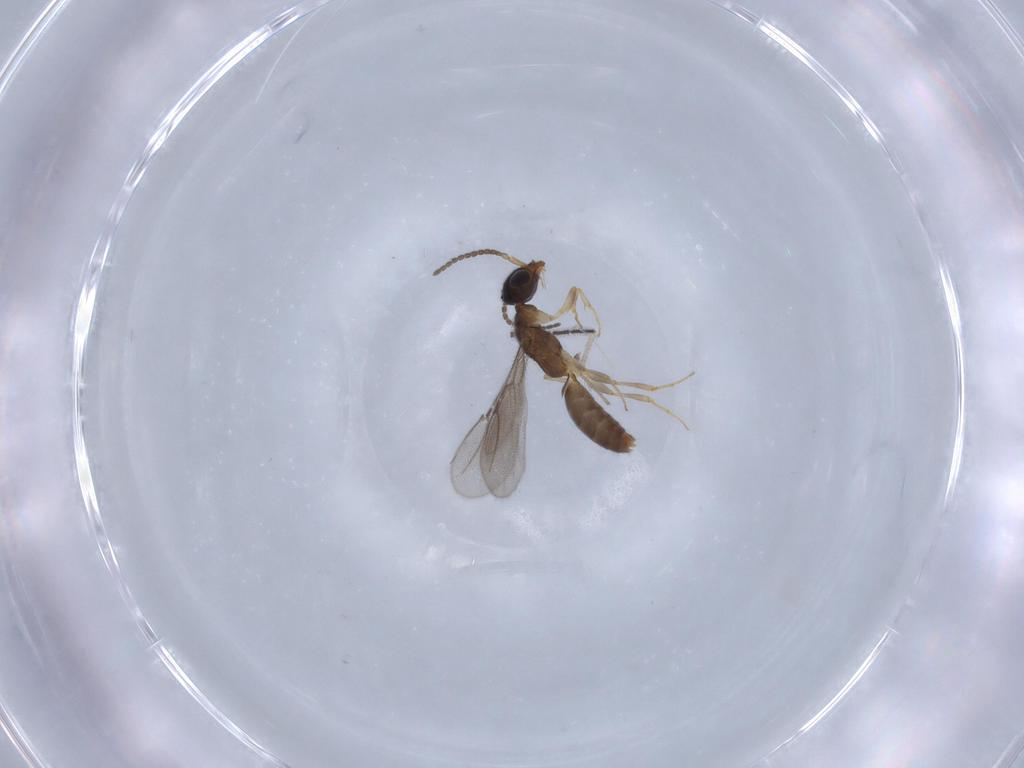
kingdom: Animalia
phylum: Arthropoda
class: Insecta
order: Hymenoptera
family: Bethylidae
